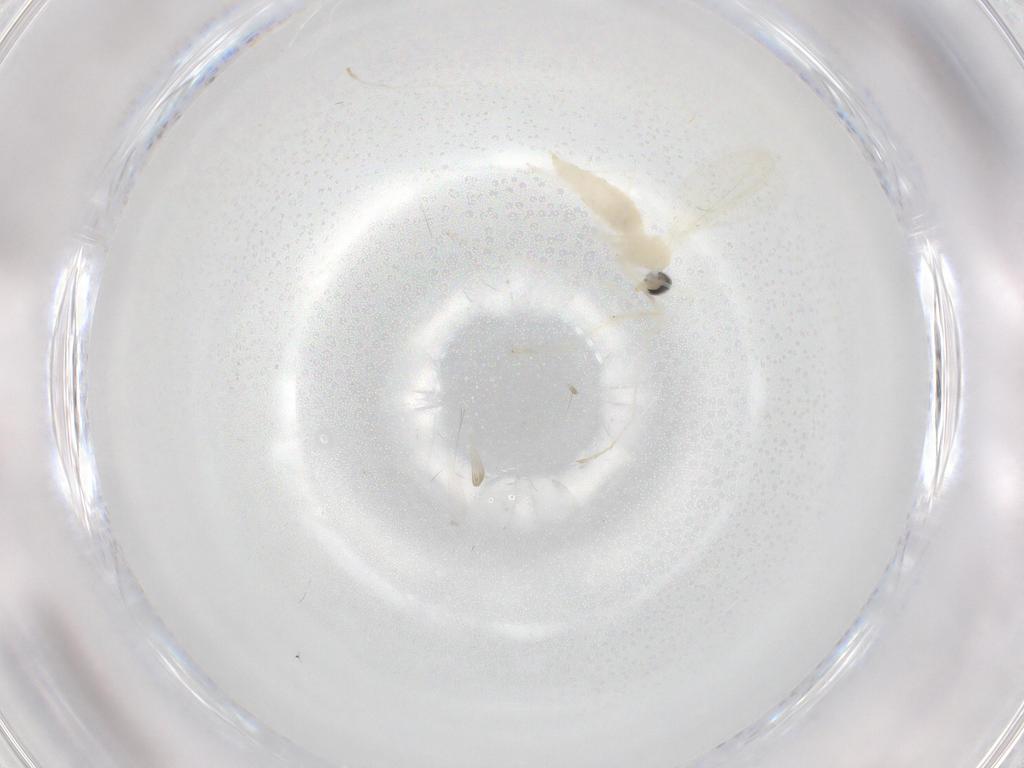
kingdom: Animalia
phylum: Arthropoda
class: Insecta
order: Diptera
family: Cecidomyiidae
